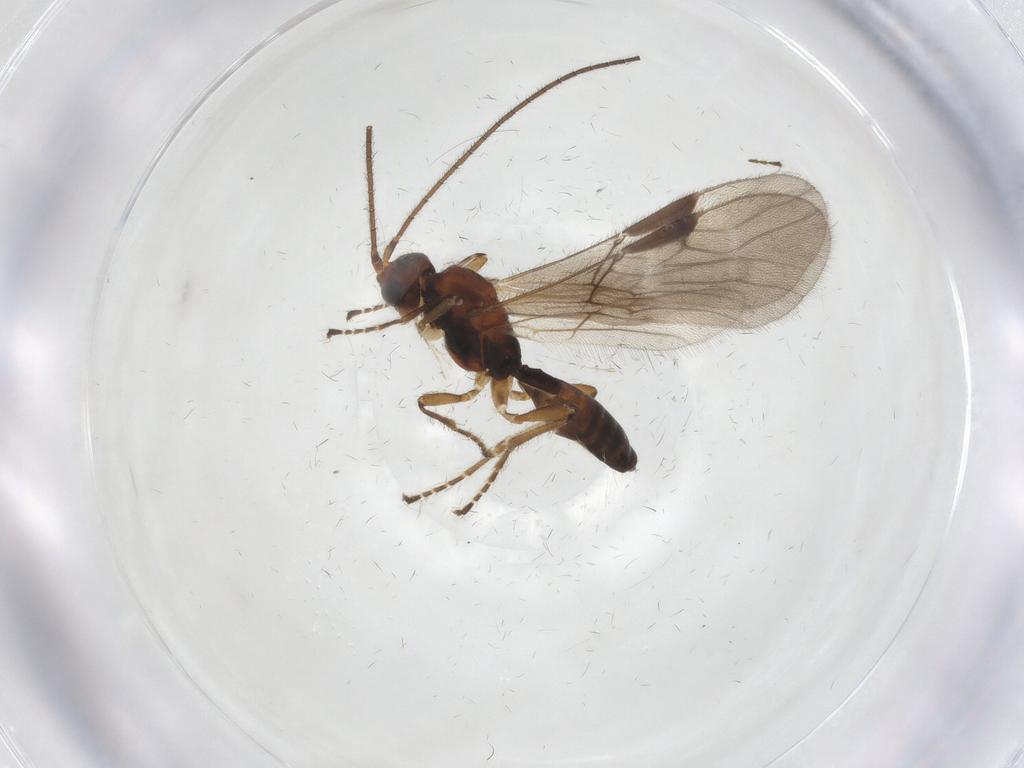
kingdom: Animalia
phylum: Arthropoda
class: Insecta
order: Hymenoptera
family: Braconidae
